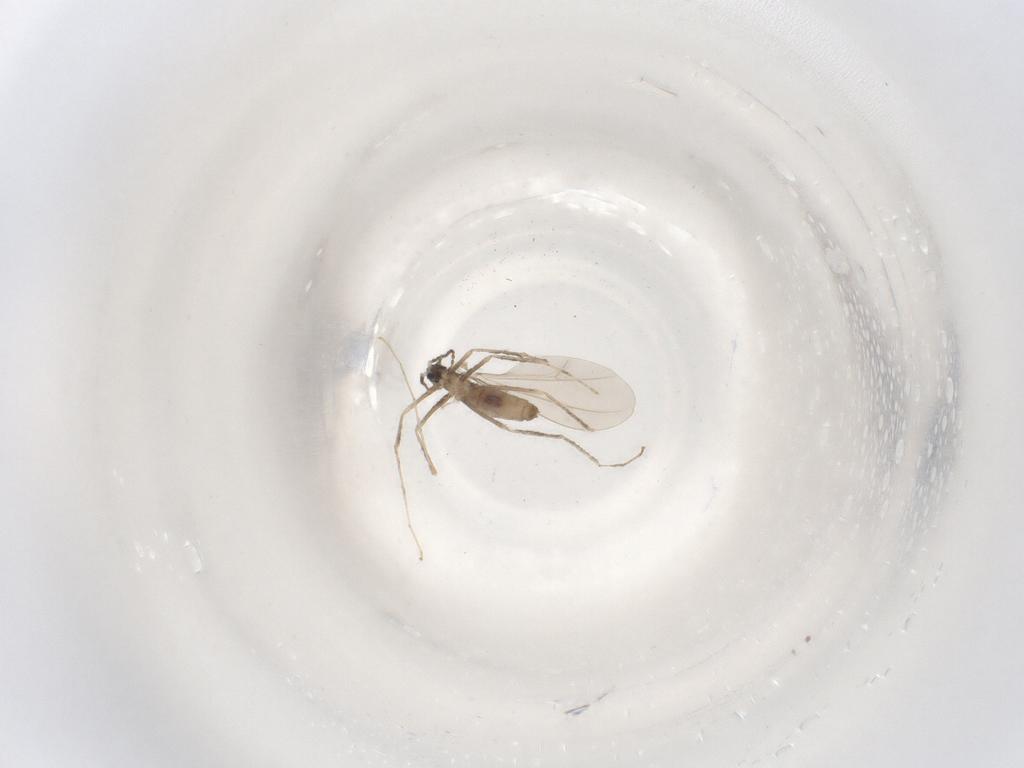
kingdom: Animalia
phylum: Arthropoda
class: Insecta
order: Diptera
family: Cecidomyiidae
